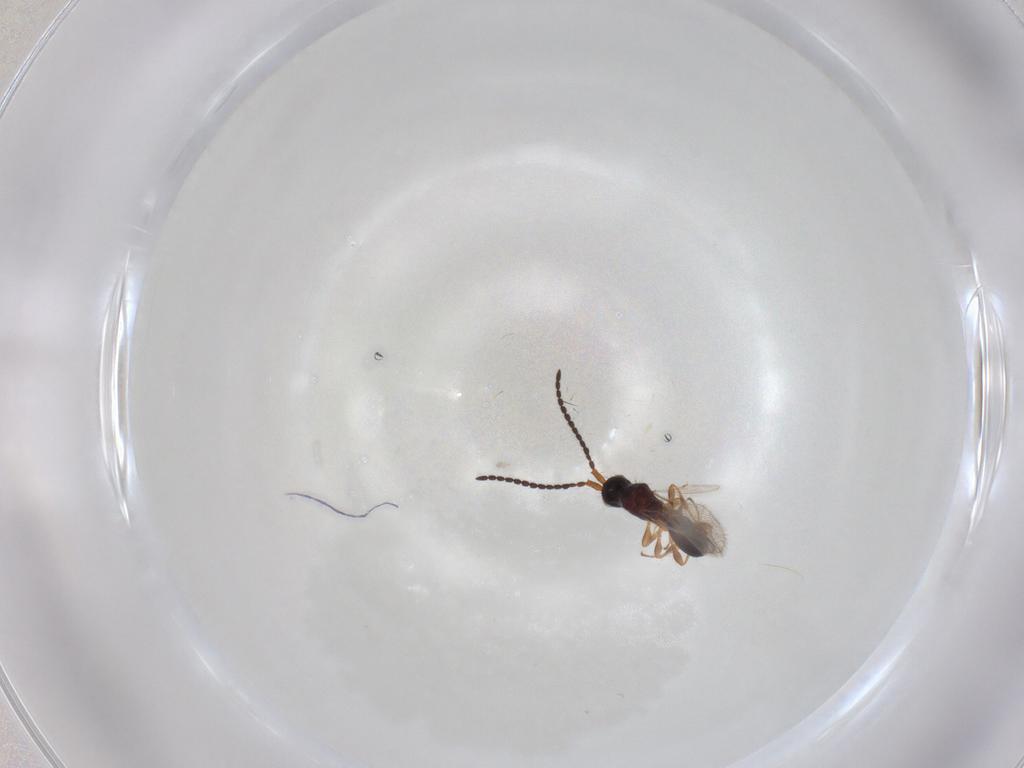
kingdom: Animalia
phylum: Arthropoda
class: Insecta
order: Hymenoptera
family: Diapriidae
